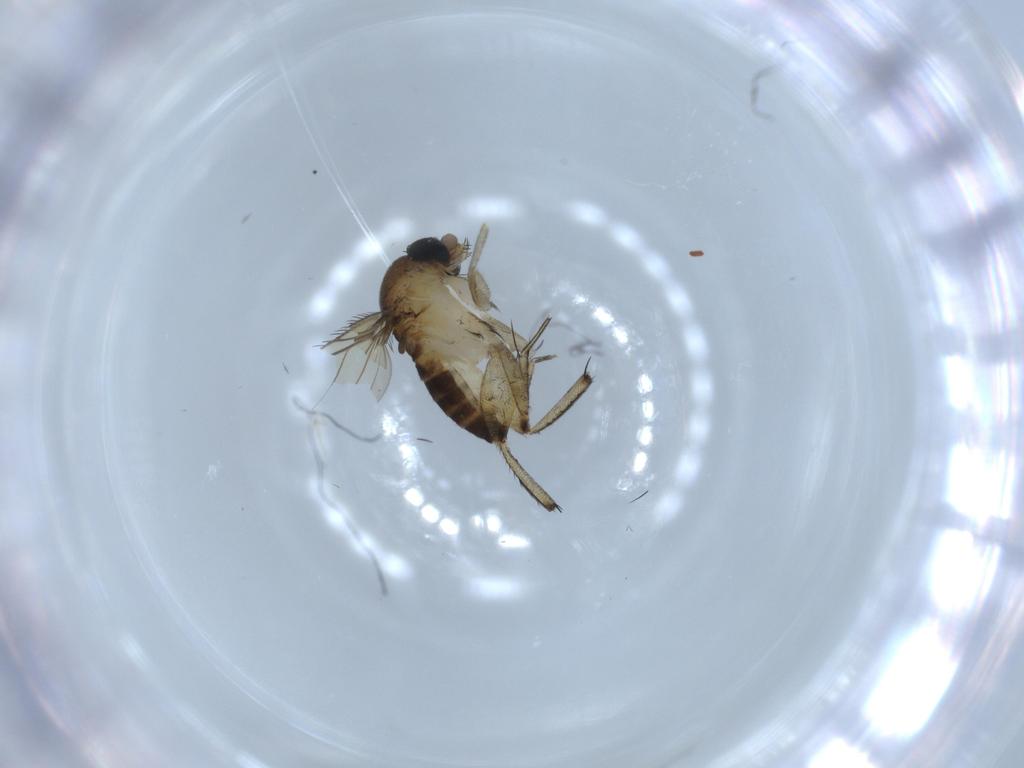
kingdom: Animalia
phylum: Arthropoda
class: Insecta
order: Diptera
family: Phoridae
